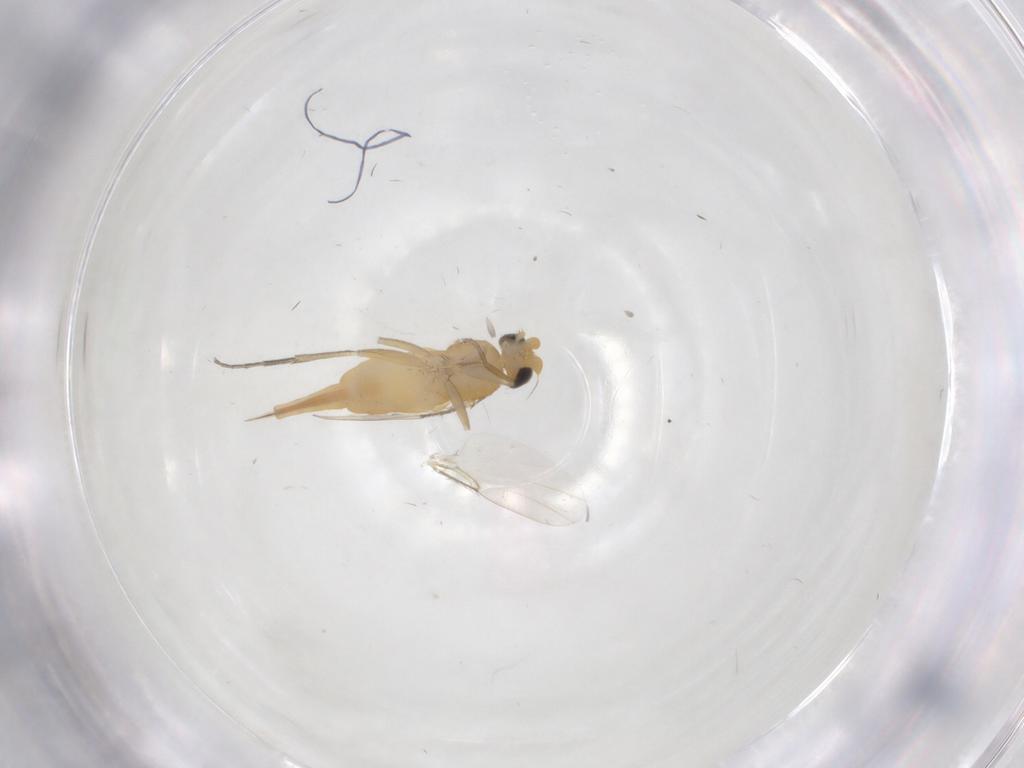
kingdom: Animalia
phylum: Arthropoda
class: Insecta
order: Diptera
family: Phoridae
